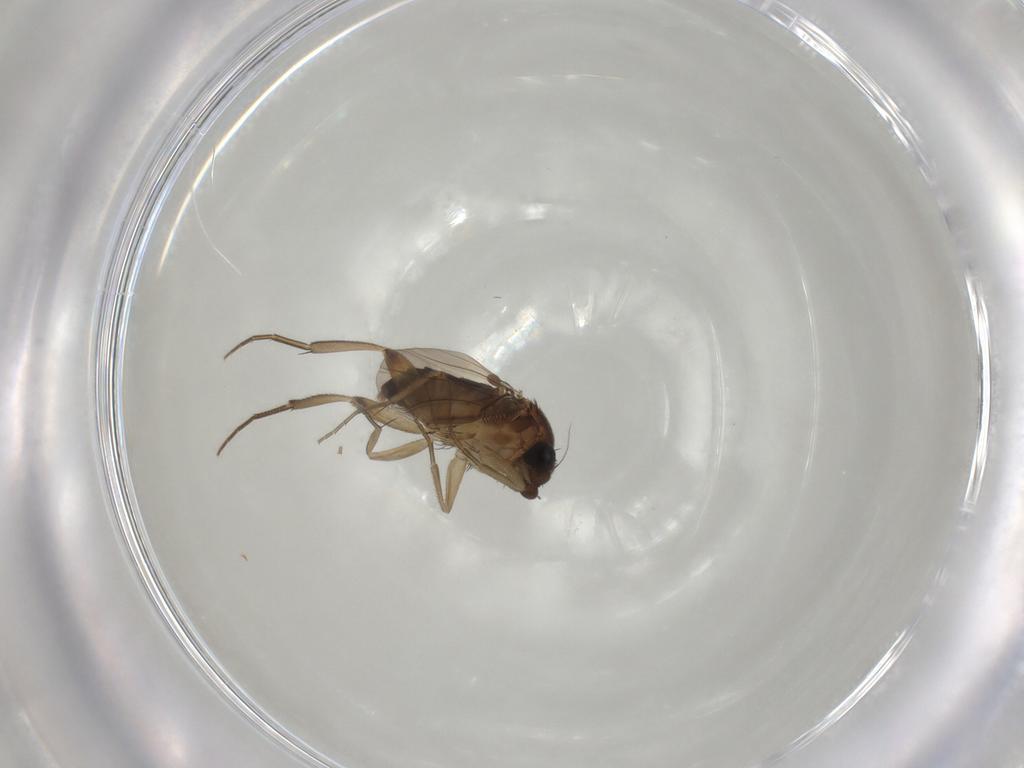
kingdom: Animalia
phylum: Arthropoda
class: Insecta
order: Diptera
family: Phoridae
